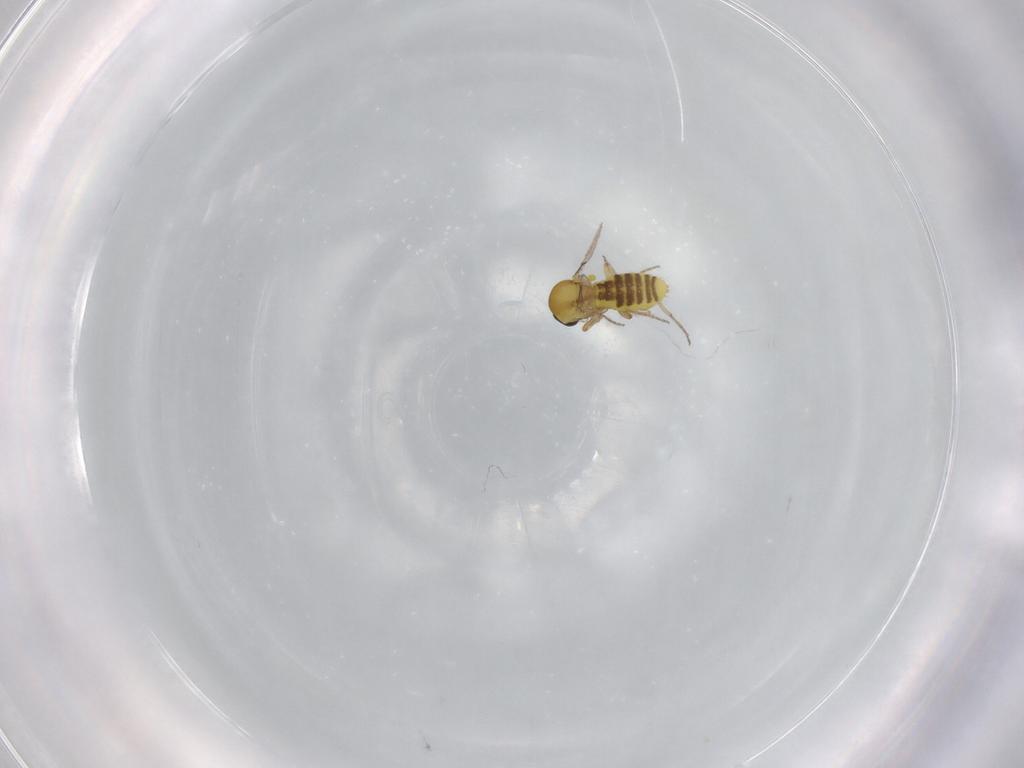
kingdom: Animalia
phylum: Arthropoda
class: Insecta
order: Diptera
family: Ceratopogonidae
